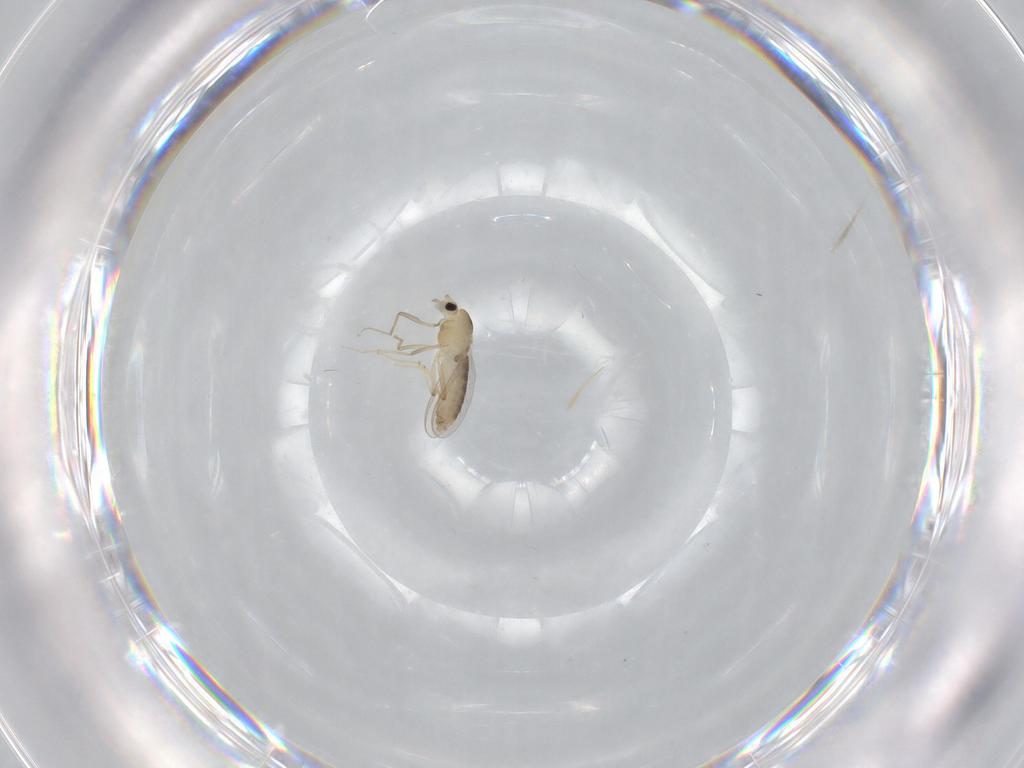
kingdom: Animalia
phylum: Arthropoda
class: Insecta
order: Diptera
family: Chironomidae
